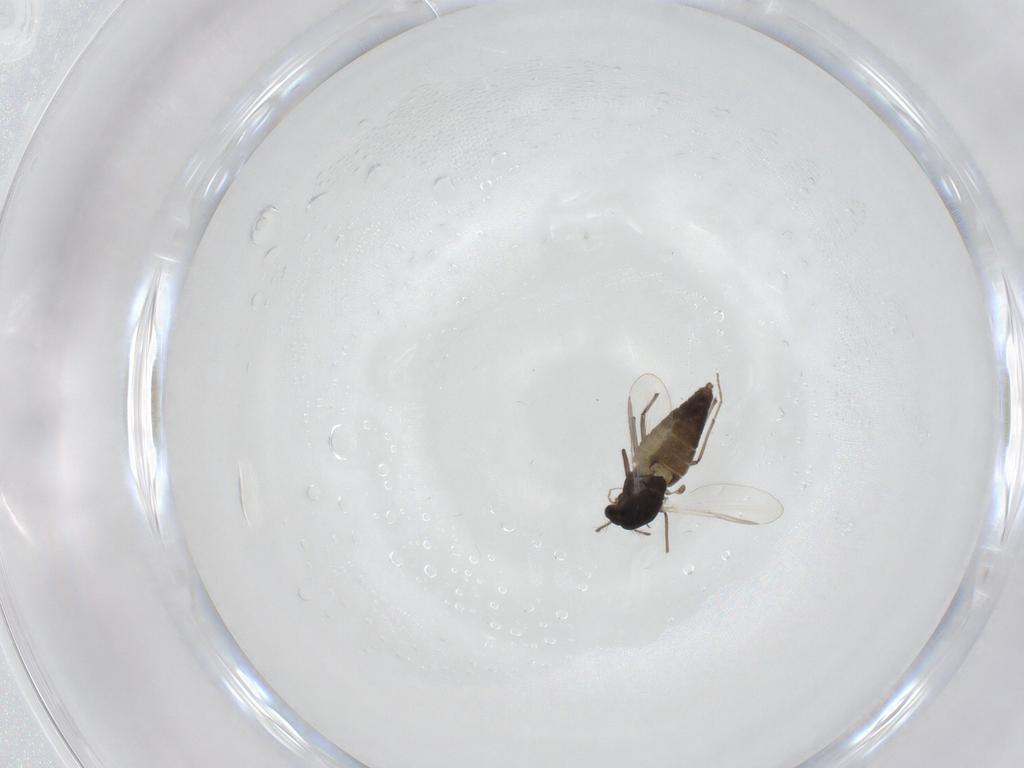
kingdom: Animalia
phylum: Arthropoda
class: Insecta
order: Diptera
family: Chironomidae
